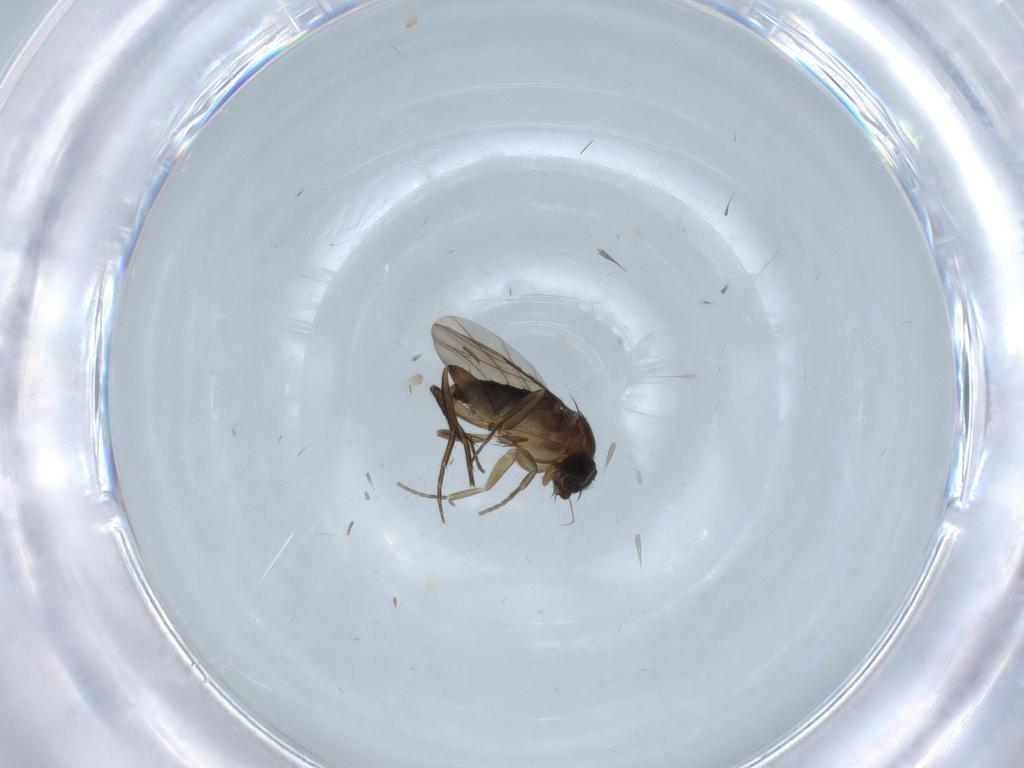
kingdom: Animalia
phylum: Arthropoda
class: Insecta
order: Diptera
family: Phoridae
